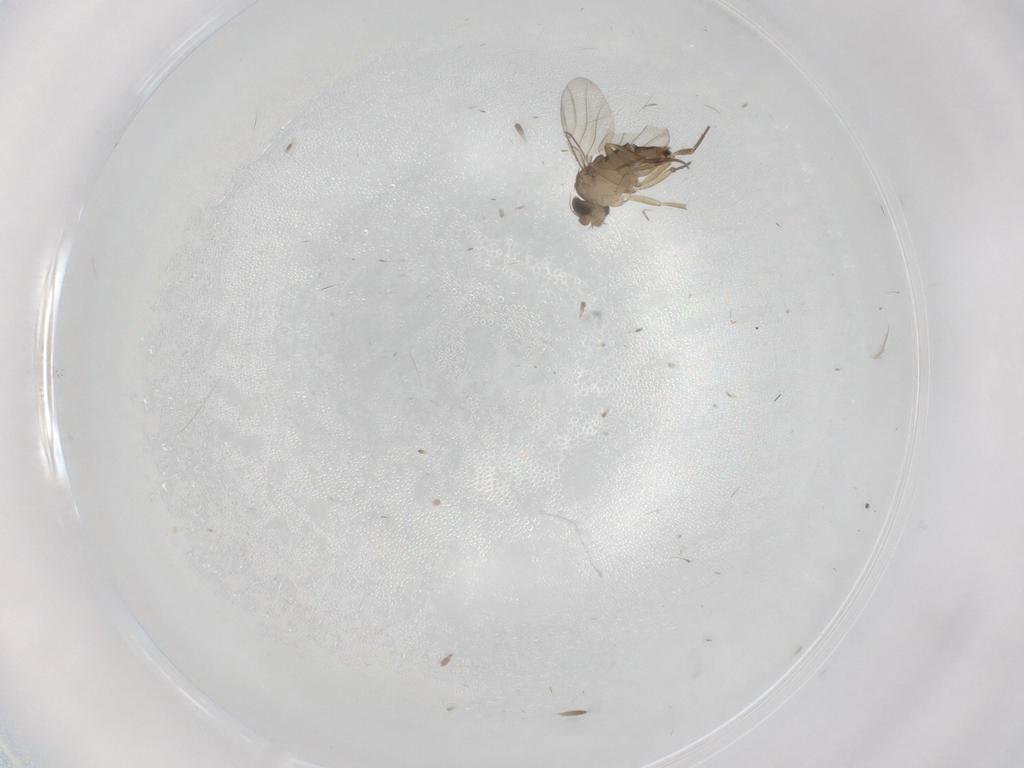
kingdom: Animalia
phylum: Arthropoda
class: Insecta
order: Diptera
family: Phoridae
